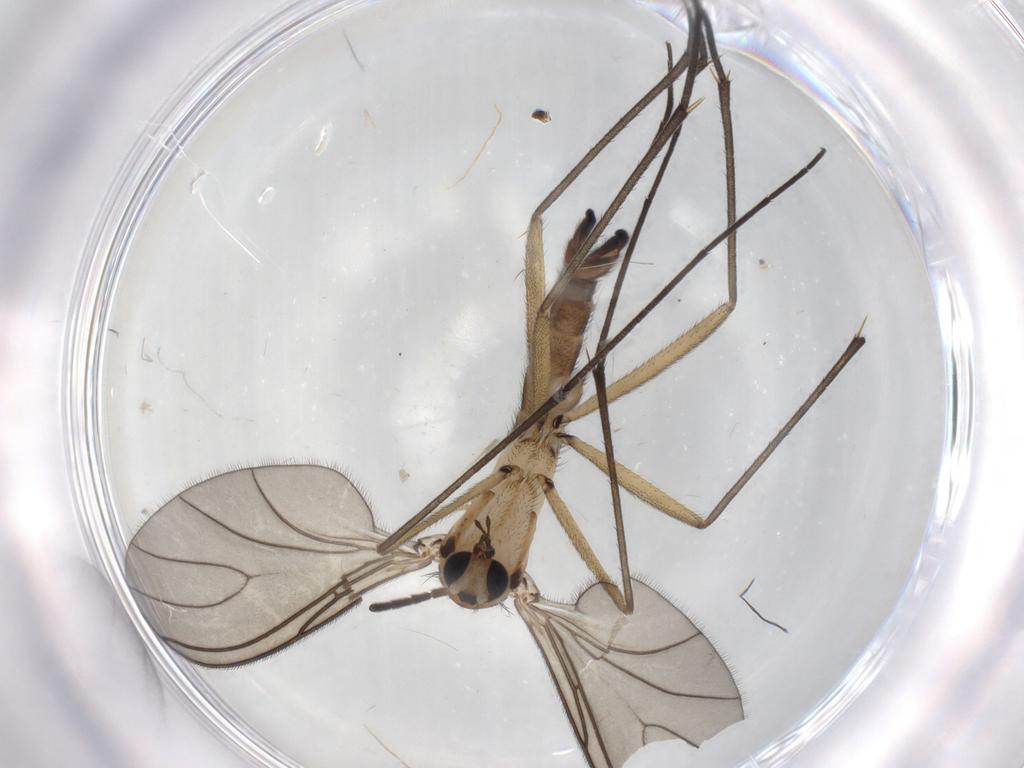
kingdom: Animalia
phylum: Arthropoda
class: Insecta
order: Diptera
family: Sciaridae
